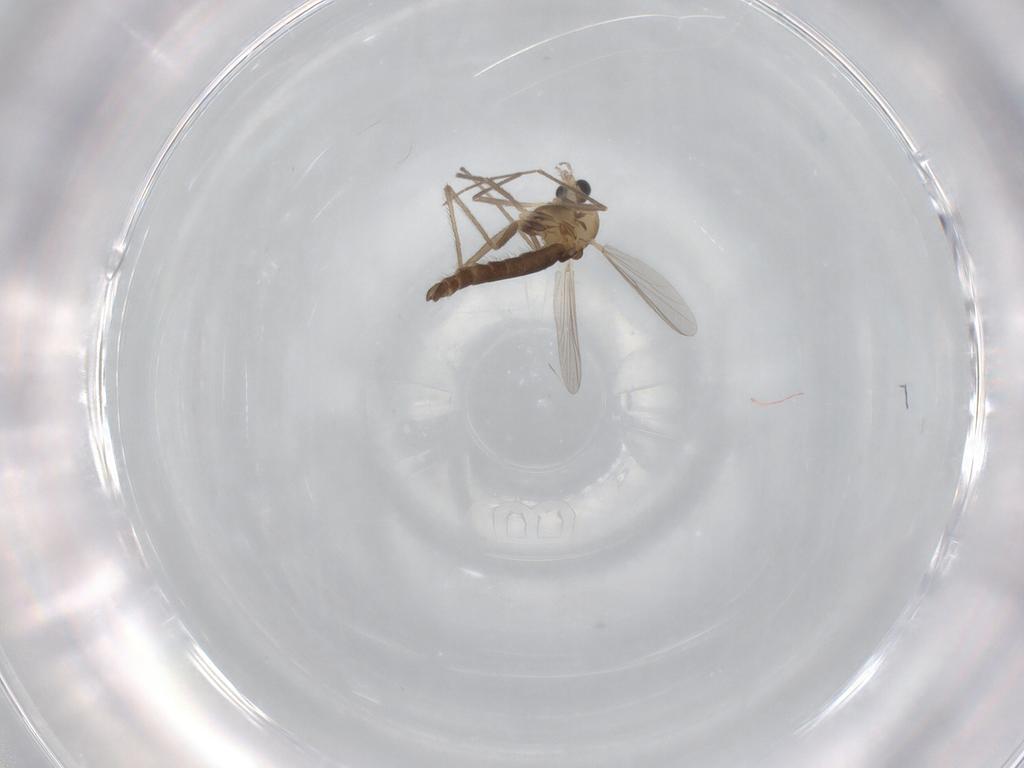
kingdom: Animalia
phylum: Arthropoda
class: Insecta
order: Diptera
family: Chironomidae
